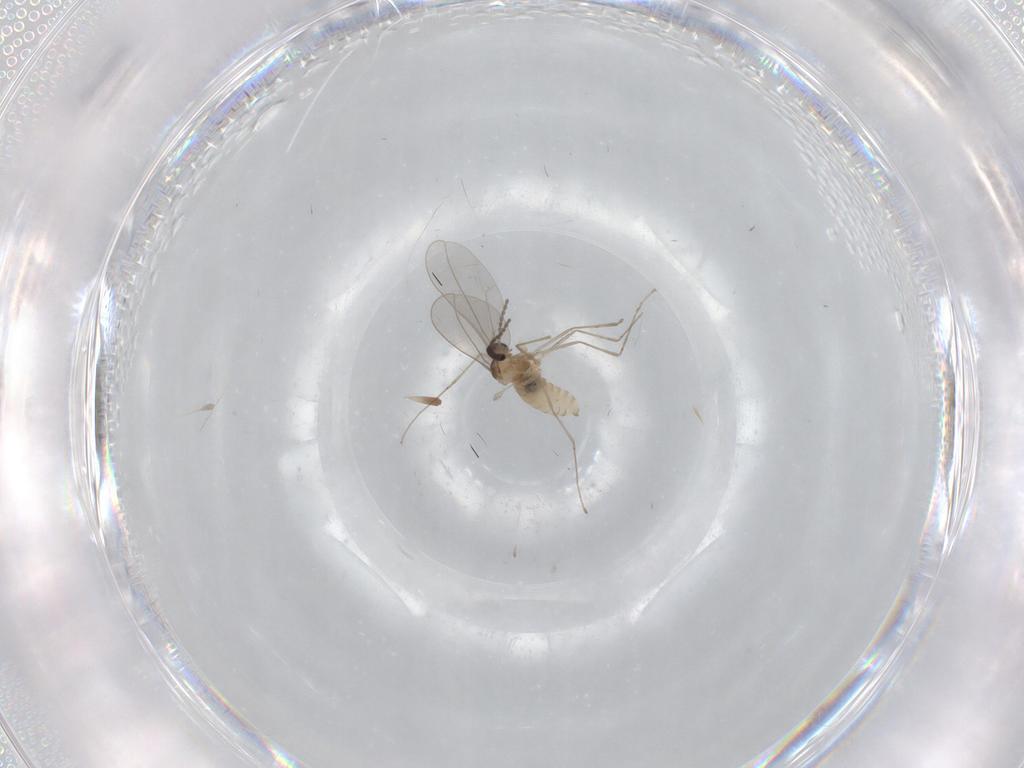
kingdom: Animalia
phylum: Arthropoda
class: Insecta
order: Diptera
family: Cecidomyiidae
